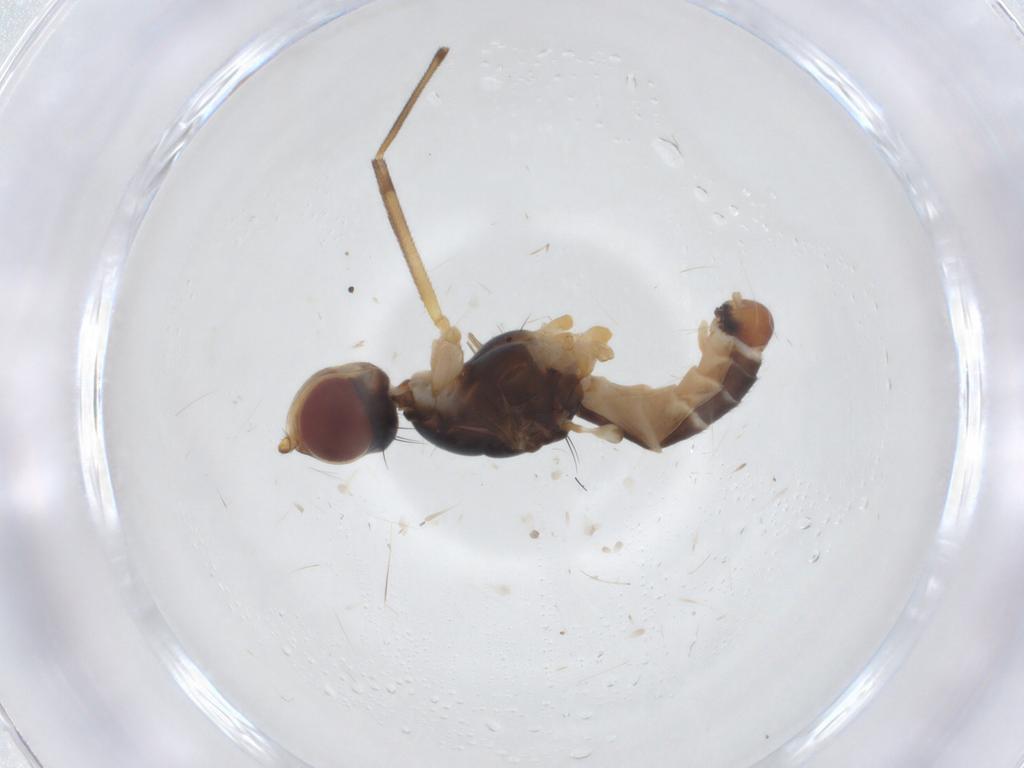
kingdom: Animalia
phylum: Arthropoda
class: Insecta
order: Diptera
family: Micropezidae
